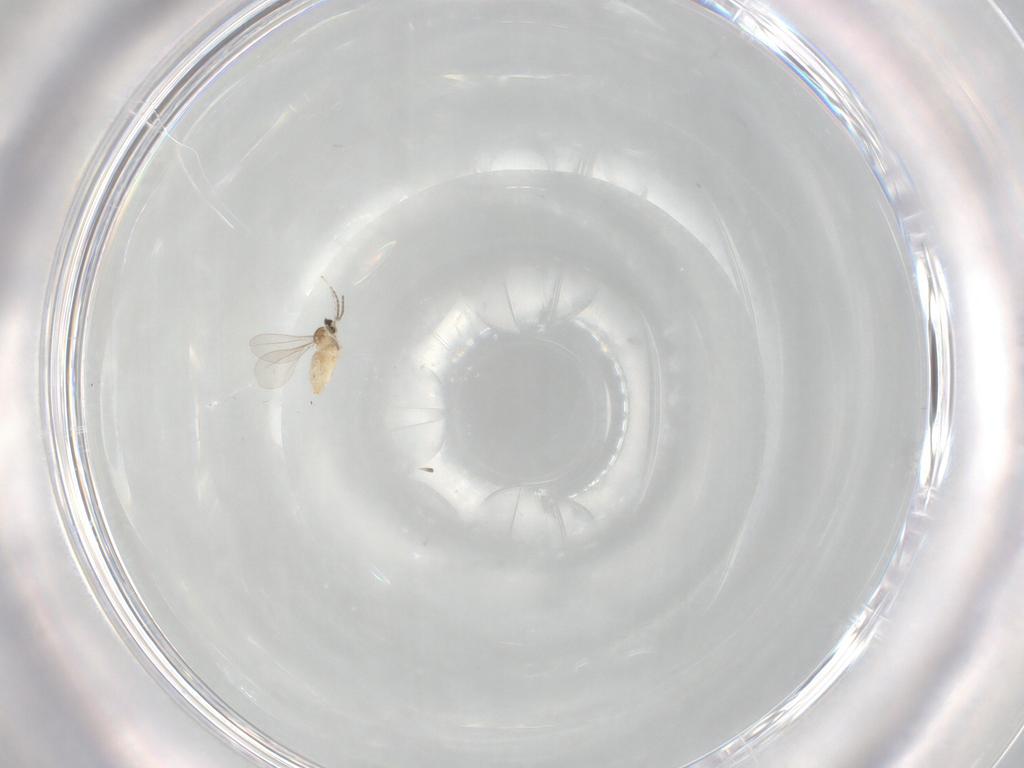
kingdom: Animalia
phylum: Arthropoda
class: Insecta
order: Diptera
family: Cecidomyiidae
